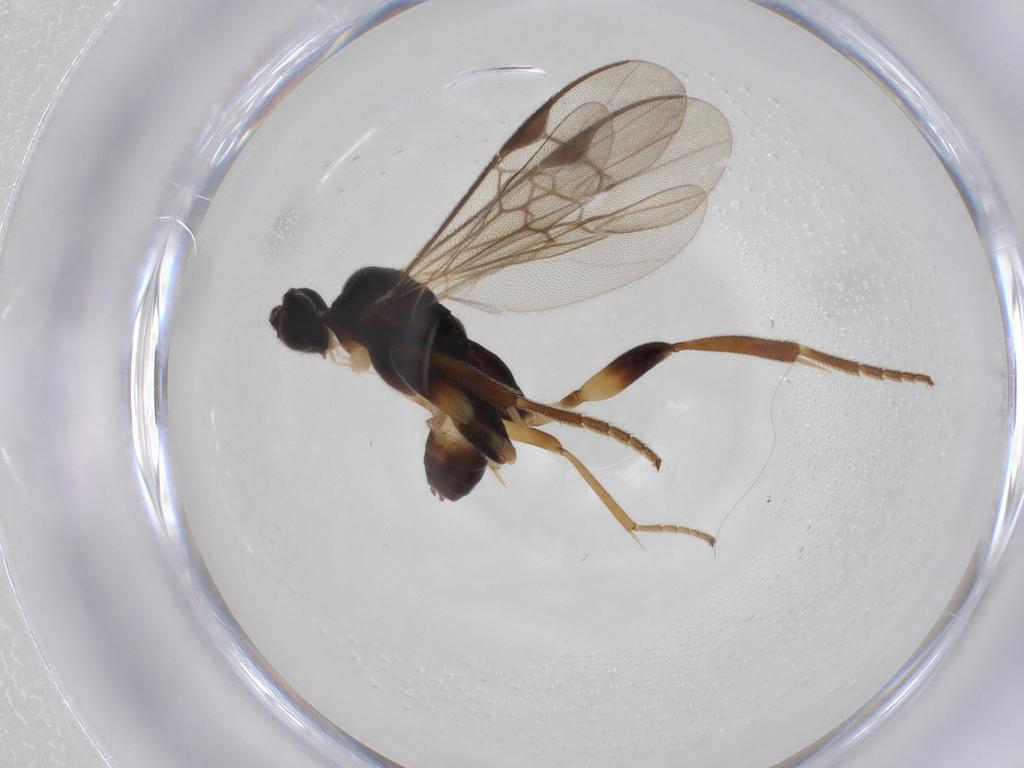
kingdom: Animalia
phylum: Arthropoda
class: Insecta
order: Hymenoptera
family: Braconidae
